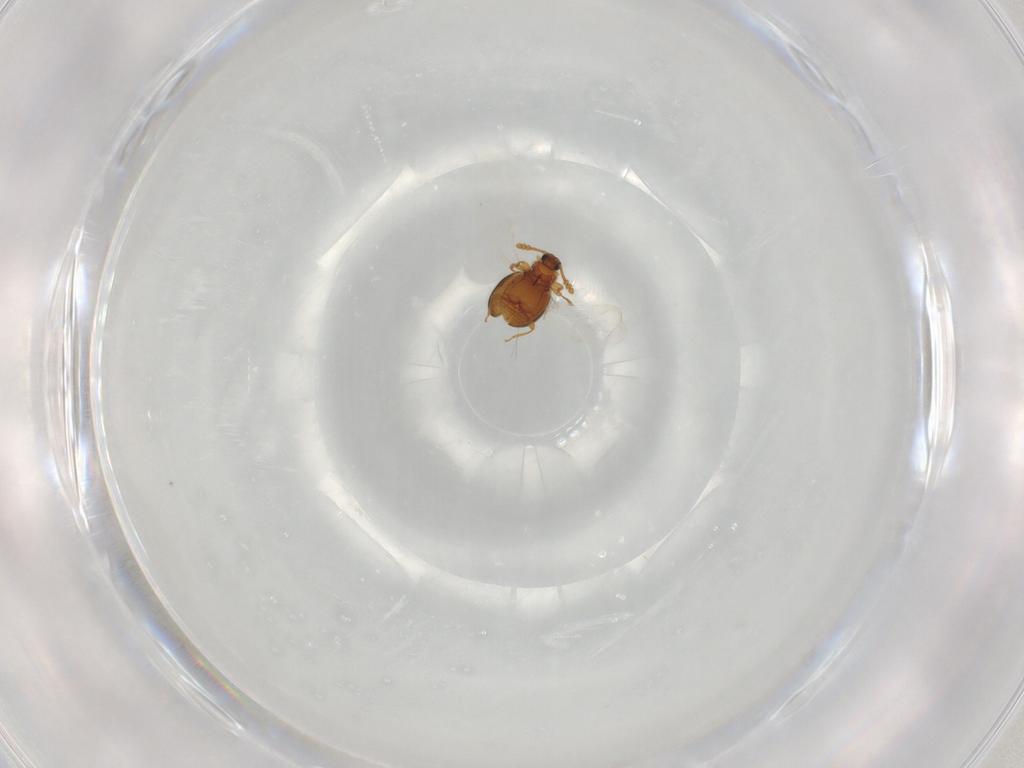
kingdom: Animalia
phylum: Arthropoda
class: Insecta
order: Coleoptera
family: Staphylinidae
